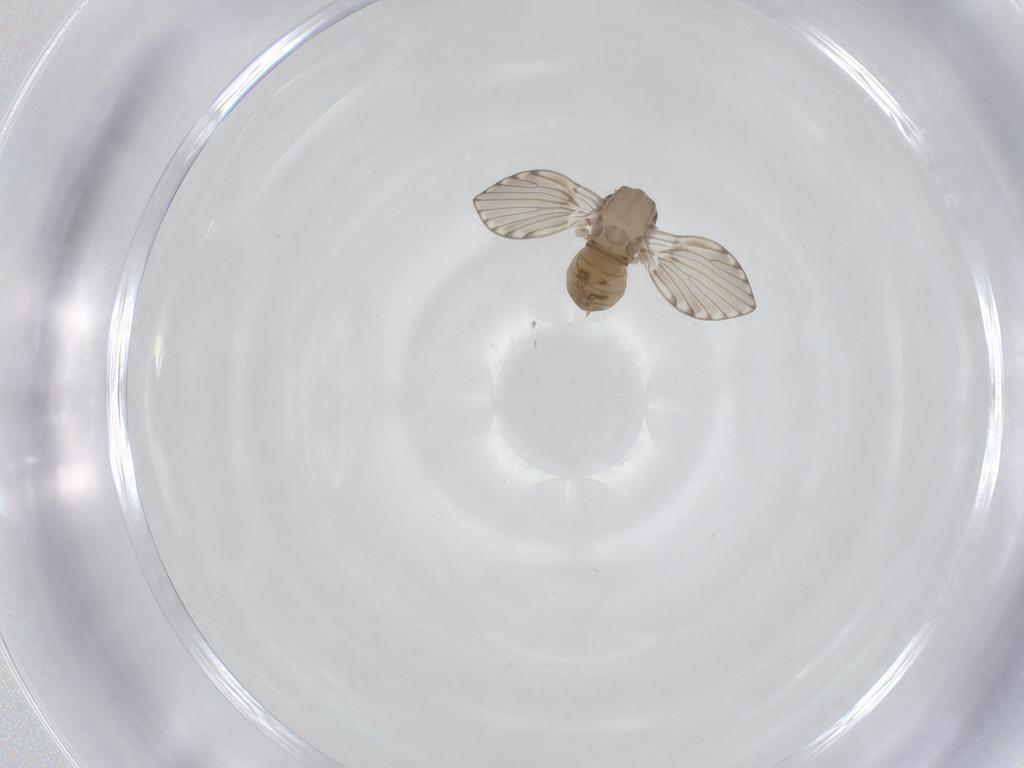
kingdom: Animalia
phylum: Arthropoda
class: Insecta
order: Diptera
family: Psychodidae
